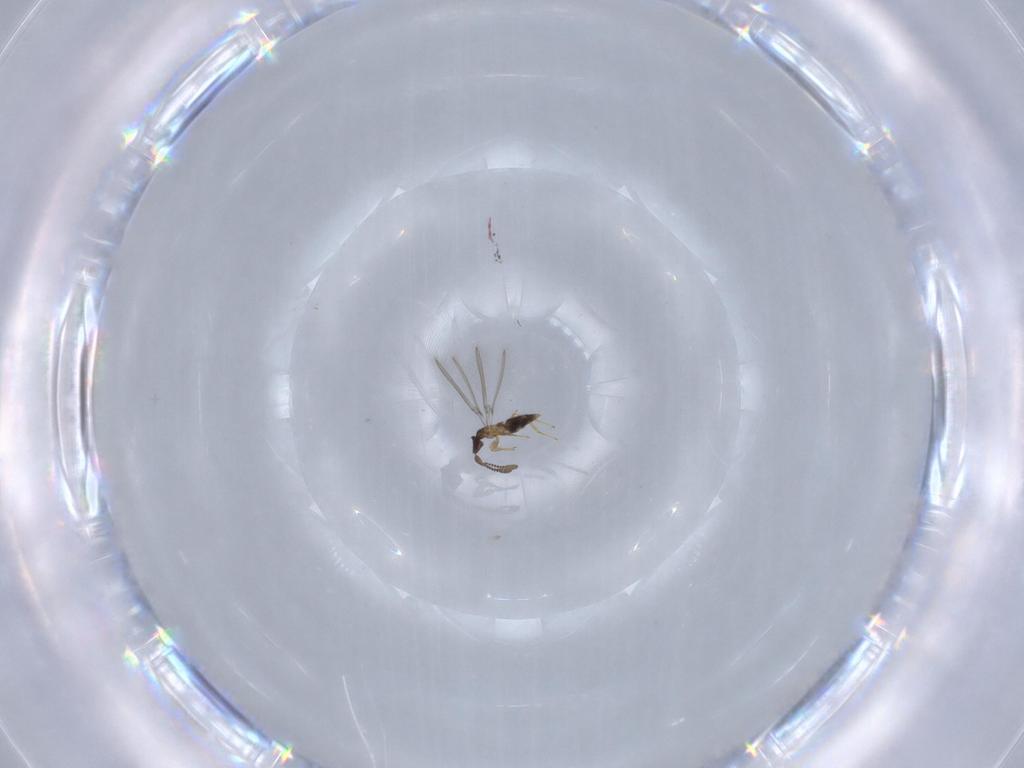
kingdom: Animalia
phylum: Arthropoda
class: Insecta
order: Hymenoptera
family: Mymaridae
